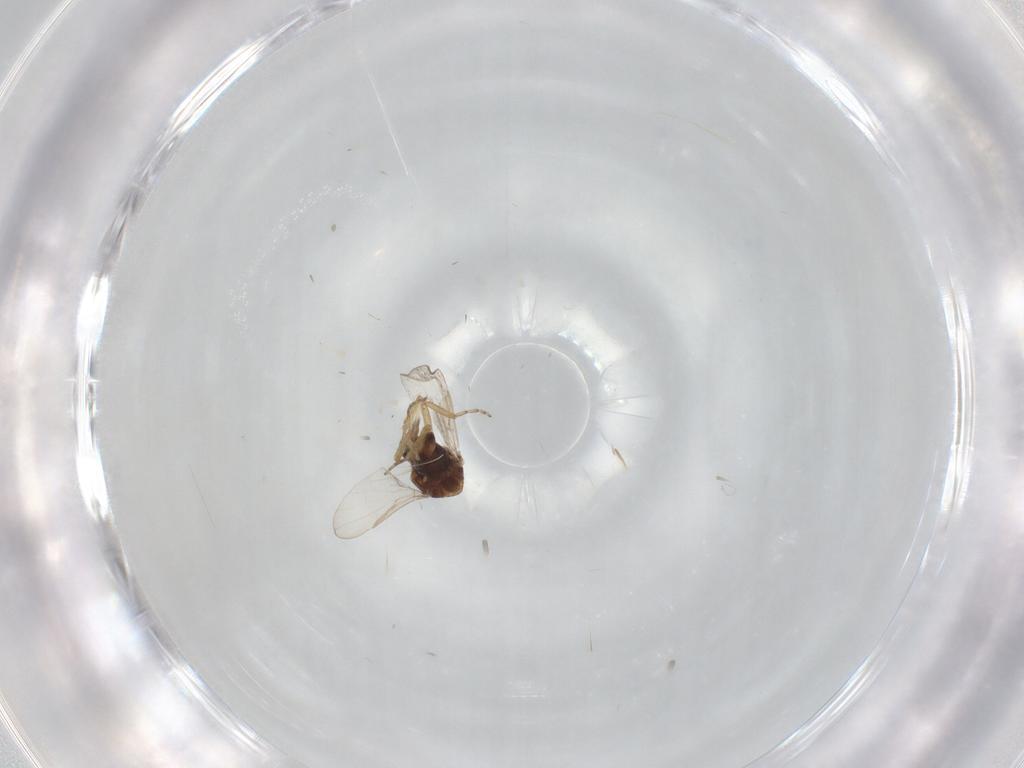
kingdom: Animalia
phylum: Arthropoda
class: Insecta
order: Diptera
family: Ceratopogonidae
